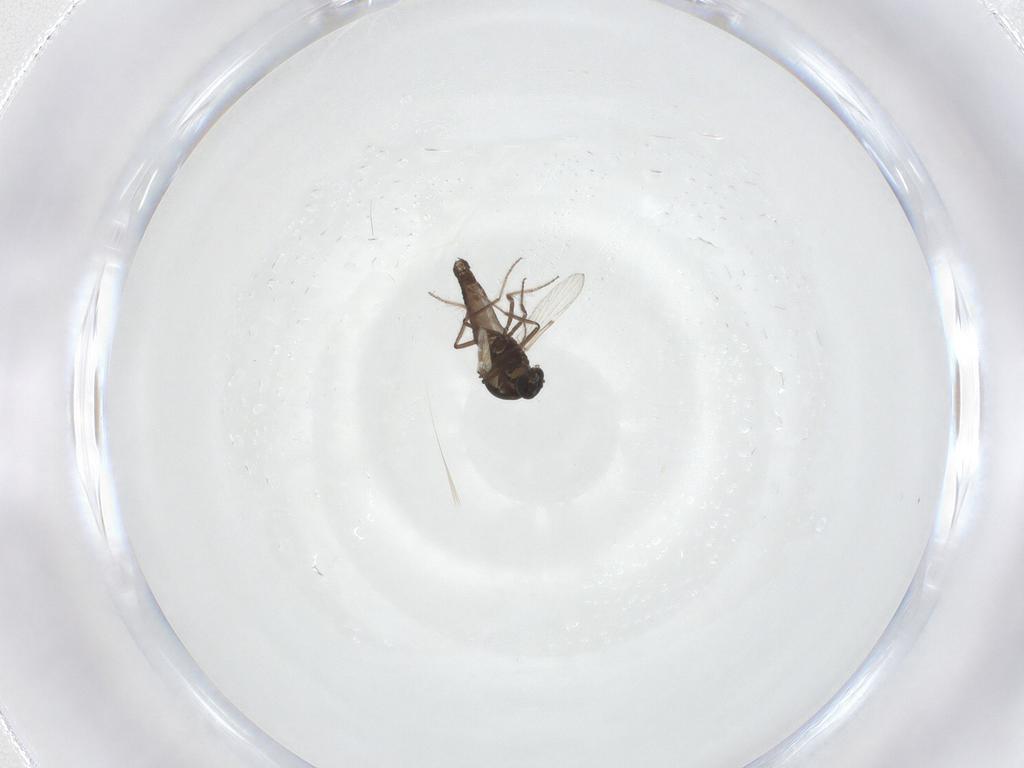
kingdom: Animalia
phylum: Arthropoda
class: Insecta
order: Diptera
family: Ceratopogonidae
